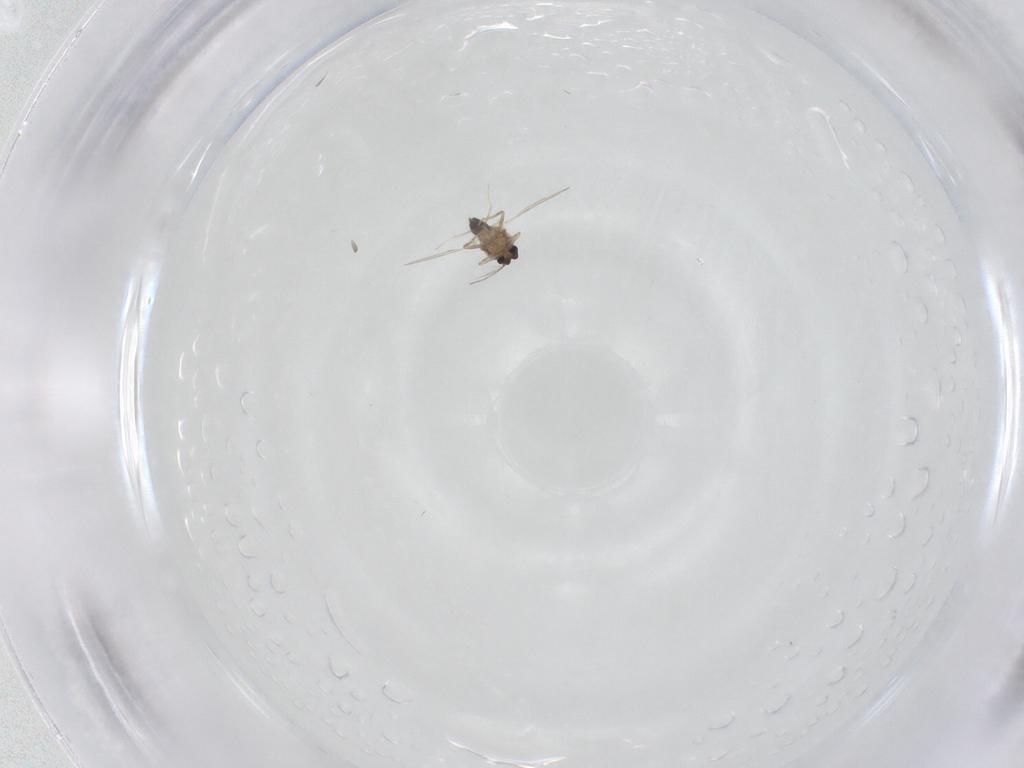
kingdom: Animalia
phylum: Arthropoda
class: Insecta
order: Diptera
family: Ceratopogonidae
